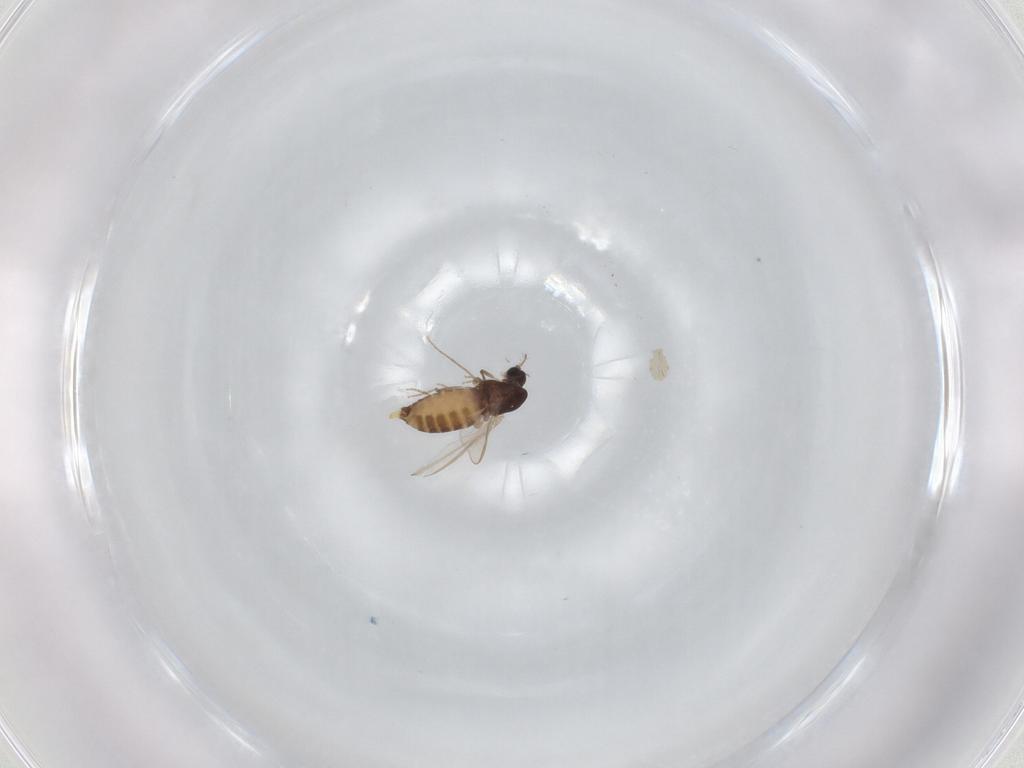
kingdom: Animalia
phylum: Arthropoda
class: Insecta
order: Diptera
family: Chironomidae
